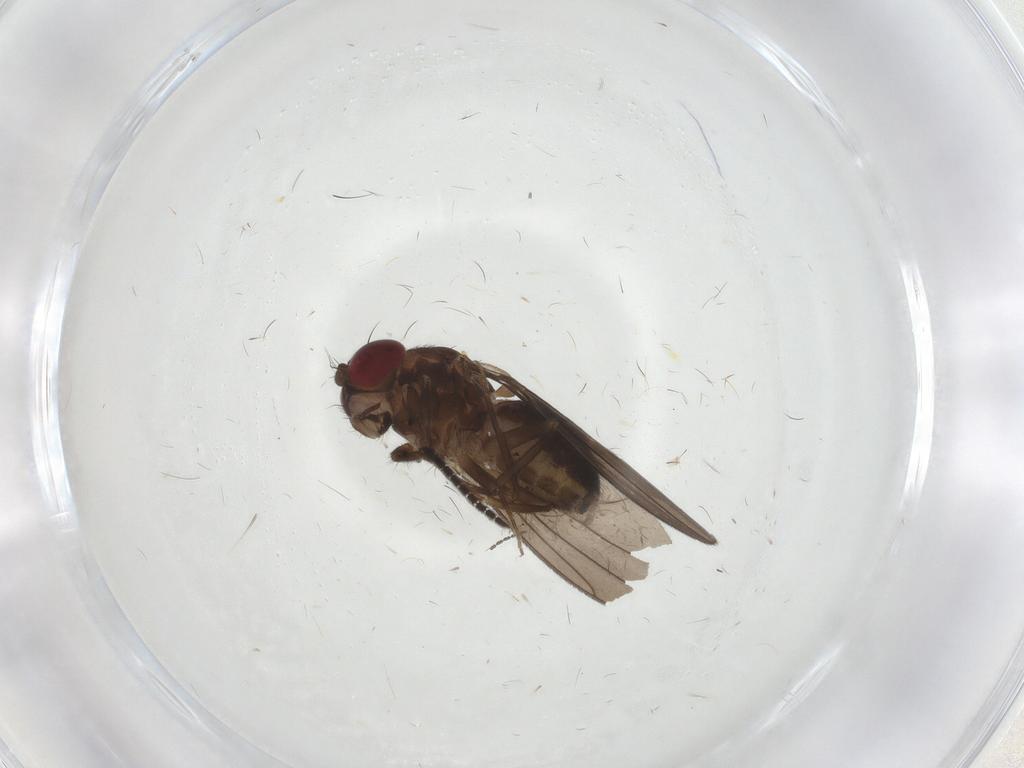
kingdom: Animalia
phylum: Arthropoda
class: Insecta
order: Diptera
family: Drosophilidae
